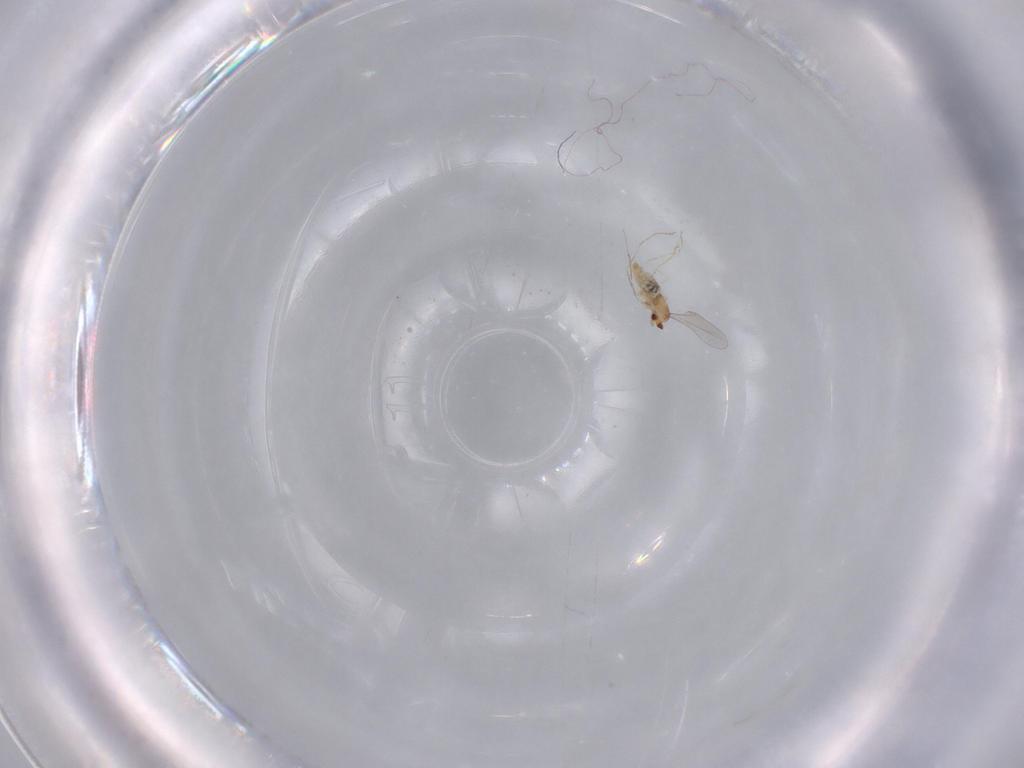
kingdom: Animalia
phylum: Arthropoda
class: Insecta
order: Diptera
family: Cecidomyiidae
